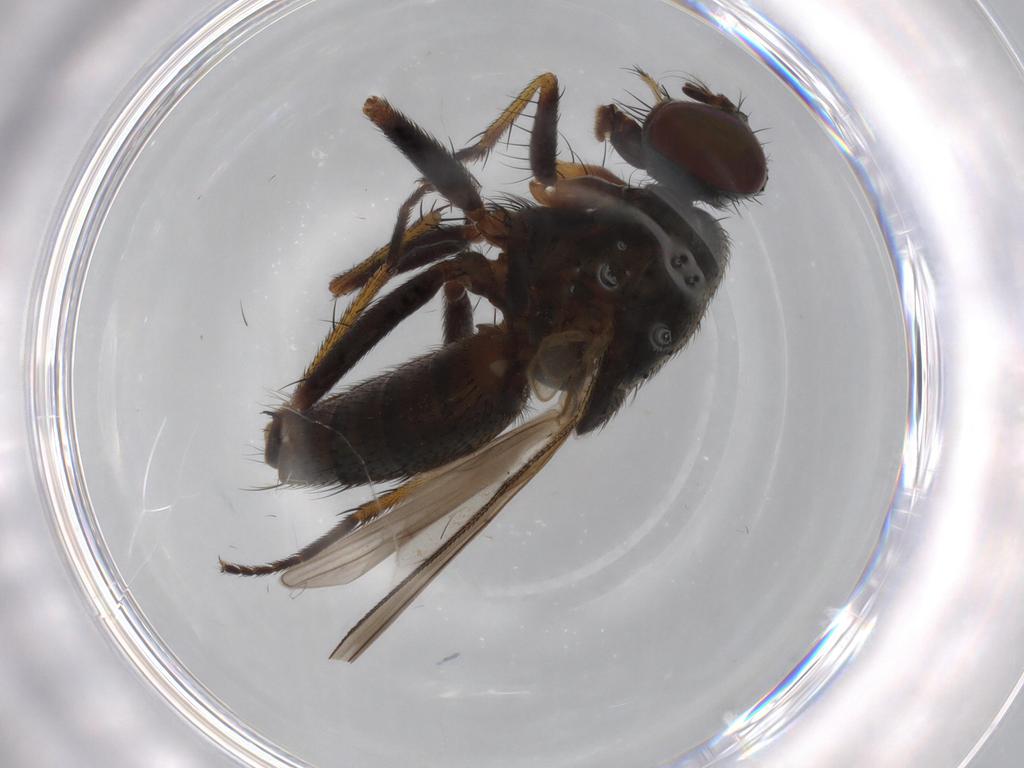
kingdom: Animalia
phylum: Arthropoda
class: Insecta
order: Diptera
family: Muscidae
